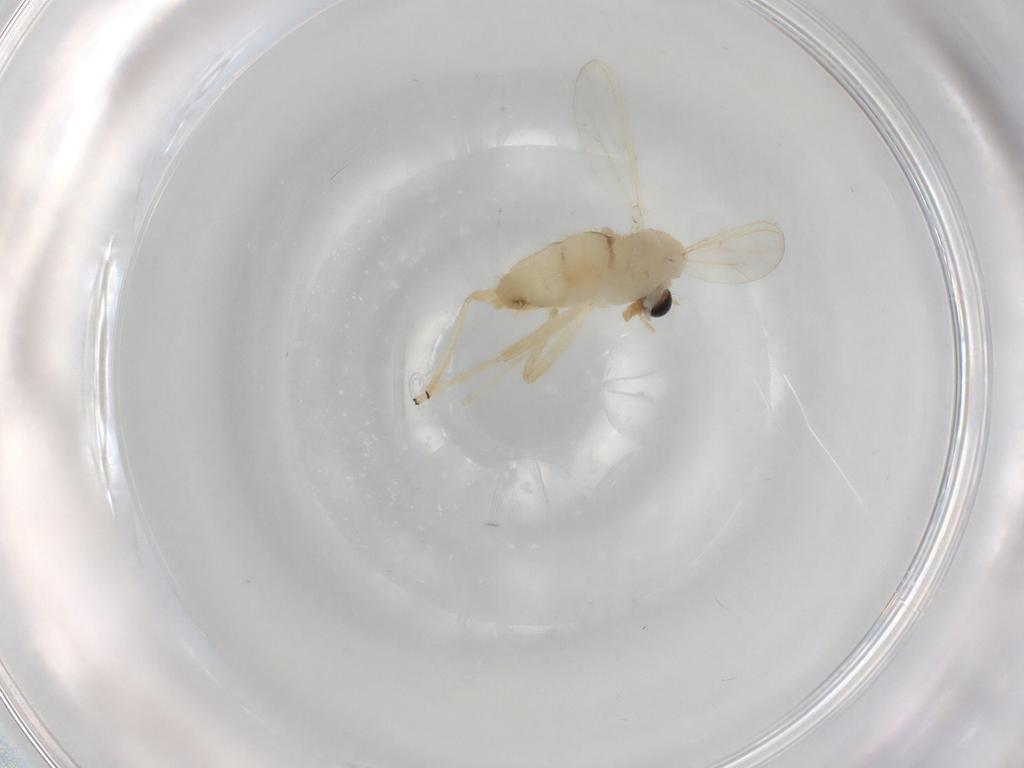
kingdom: Animalia
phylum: Arthropoda
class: Insecta
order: Diptera
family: Chironomidae
